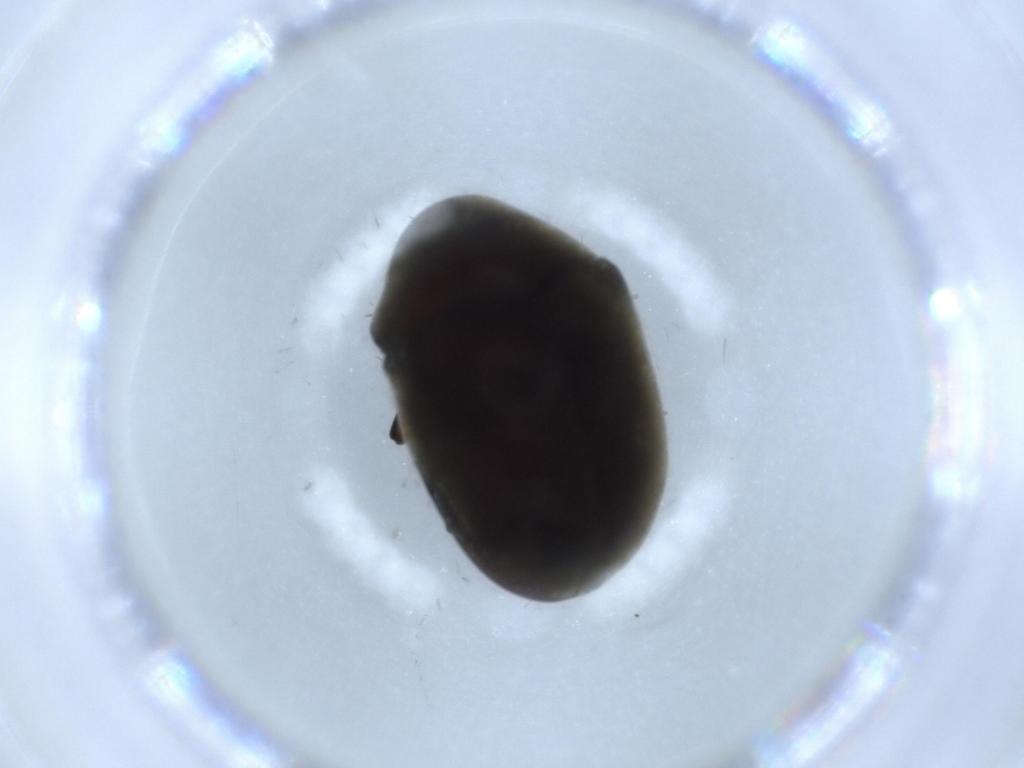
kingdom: Animalia
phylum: Arthropoda
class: Insecta
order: Coleoptera
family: Ptinidae
